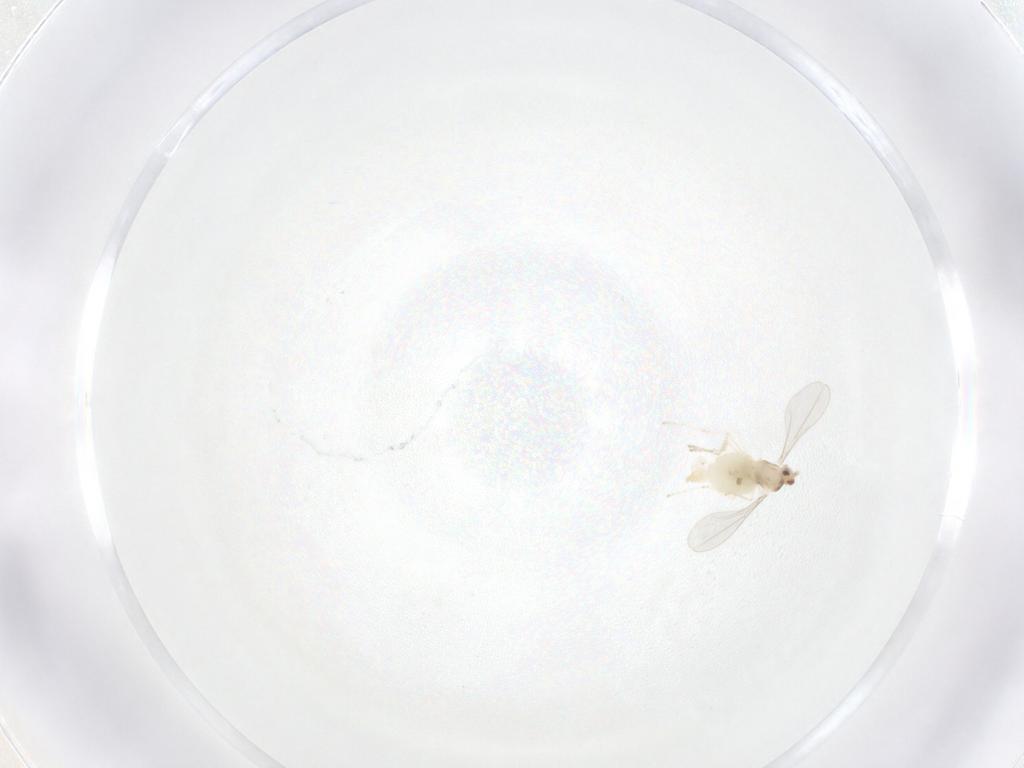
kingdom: Animalia
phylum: Arthropoda
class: Insecta
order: Diptera
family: Cecidomyiidae
